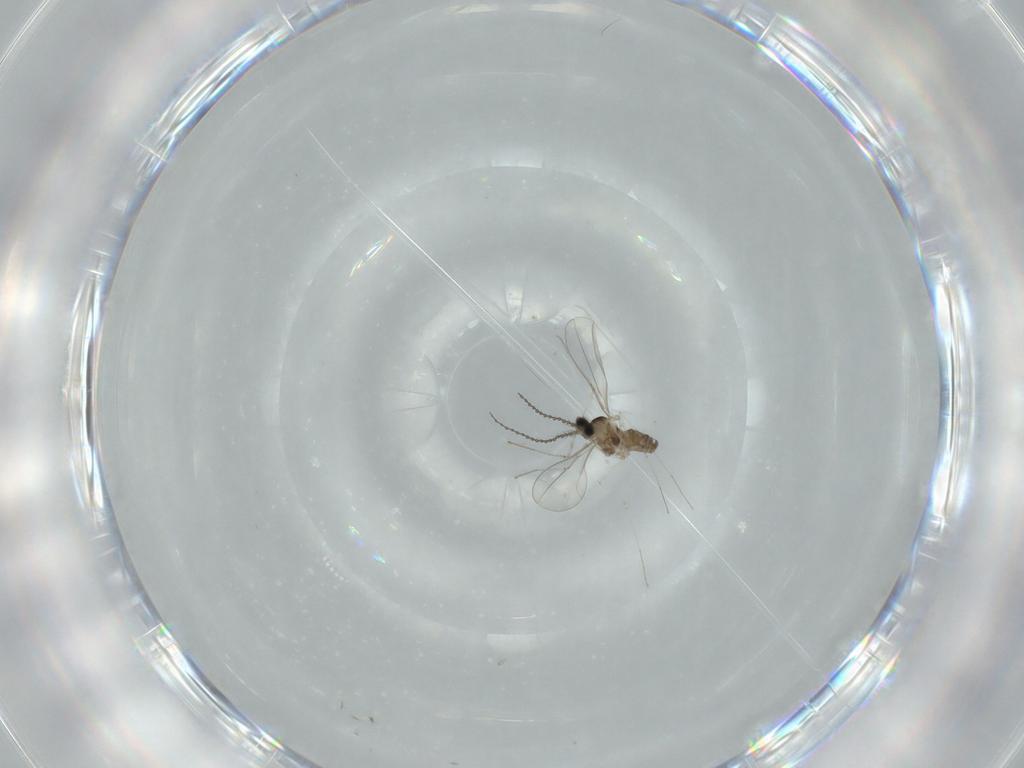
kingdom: Animalia
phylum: Arthropoda
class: Insecta
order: Diptera
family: Cecidomyiidae
